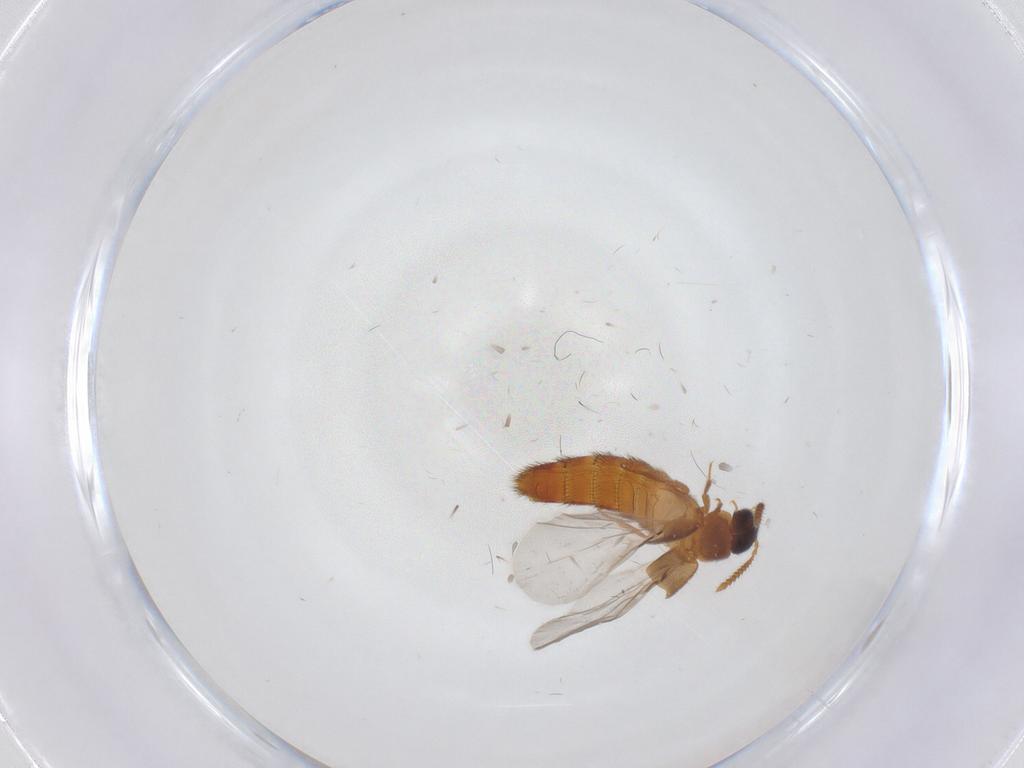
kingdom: Animalia
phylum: Arthropoda
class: Insecta
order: Coleoptera
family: Staphylinidae
